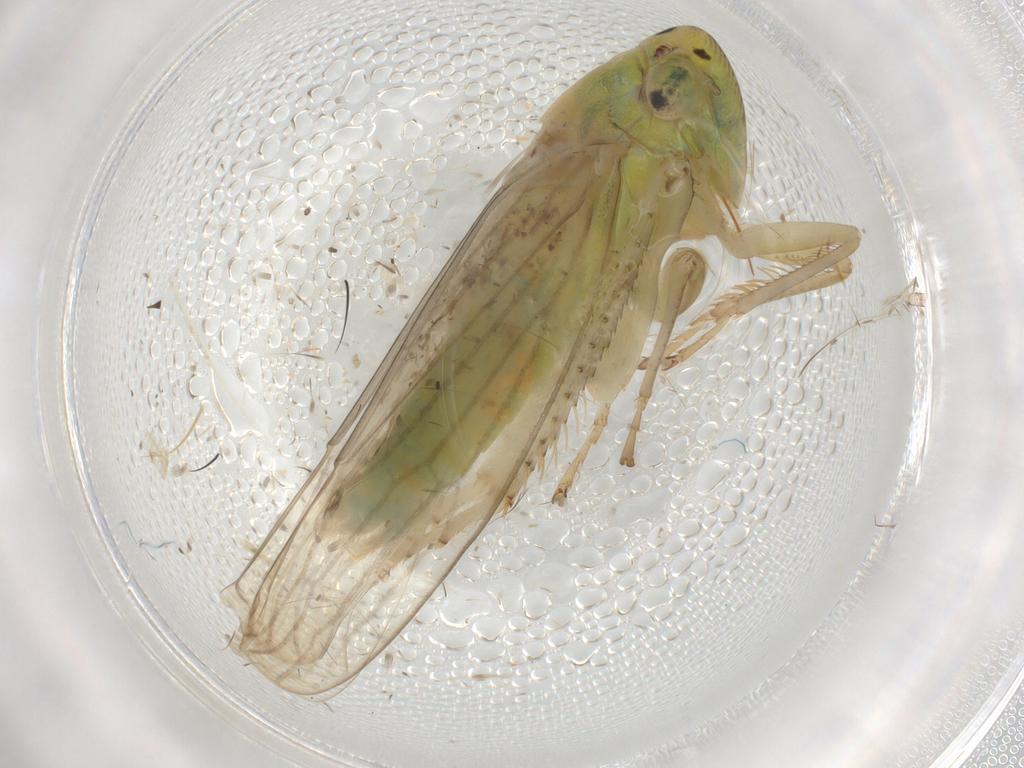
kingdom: Animalia
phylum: Arthropoda
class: Insecta
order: Hemiptera
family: Cicadellidae
